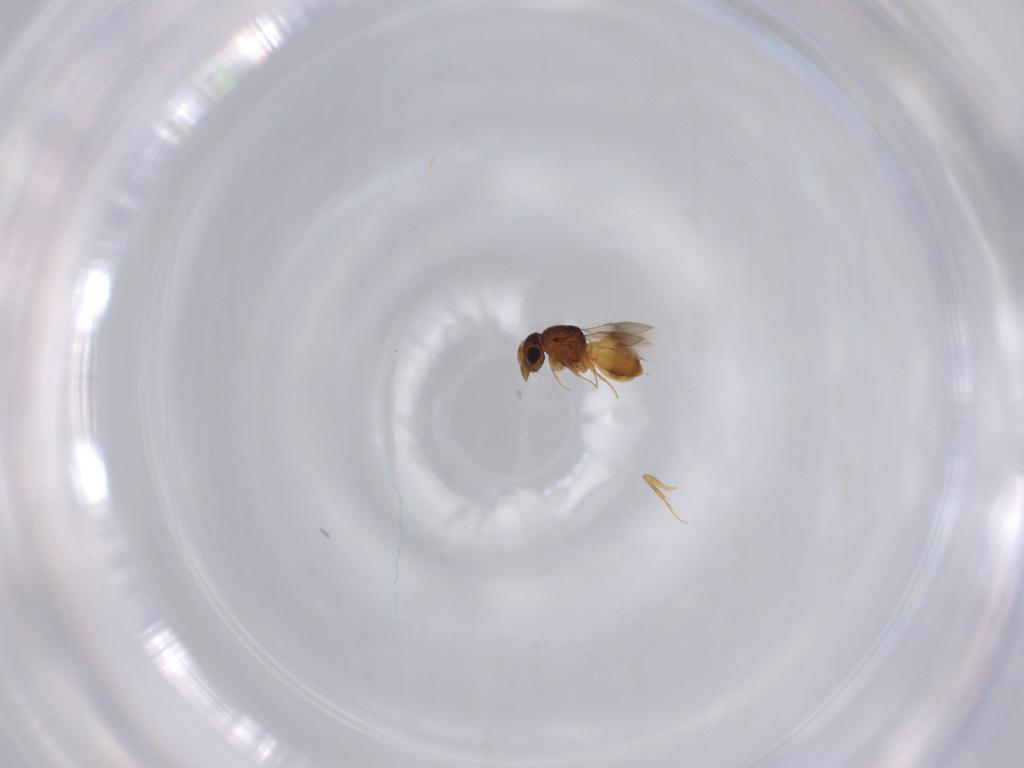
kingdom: Animalia
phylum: Arthropoda
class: Insecta
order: Hymenoptera
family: Scelionidae
